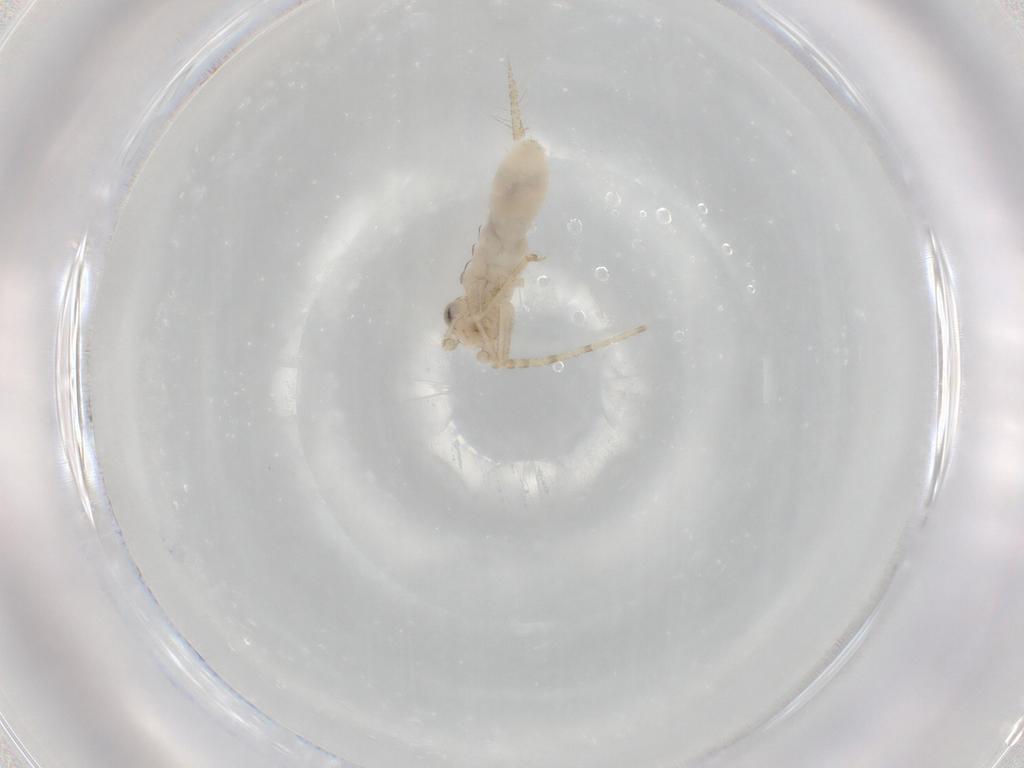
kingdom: Animalia
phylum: Arthropoda
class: Insecta
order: Orthoptera
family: Trigonidiidae
